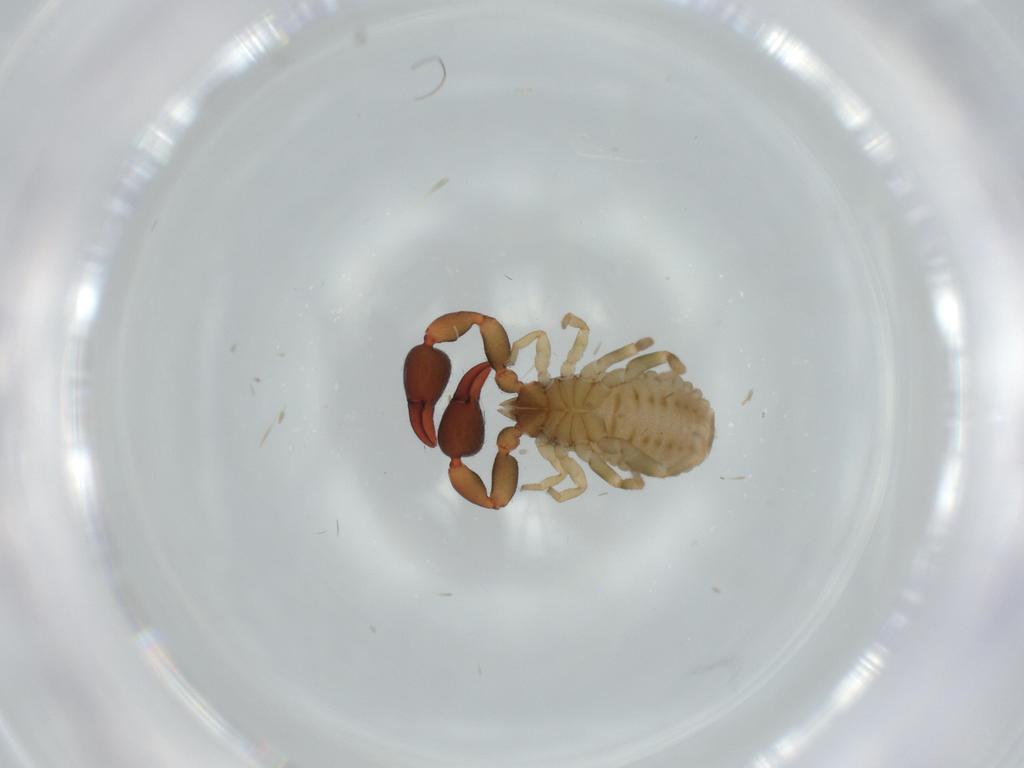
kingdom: Animalia
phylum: Arthropoda
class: Arachnida
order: Pseudoscorpiones
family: Chernetidae
